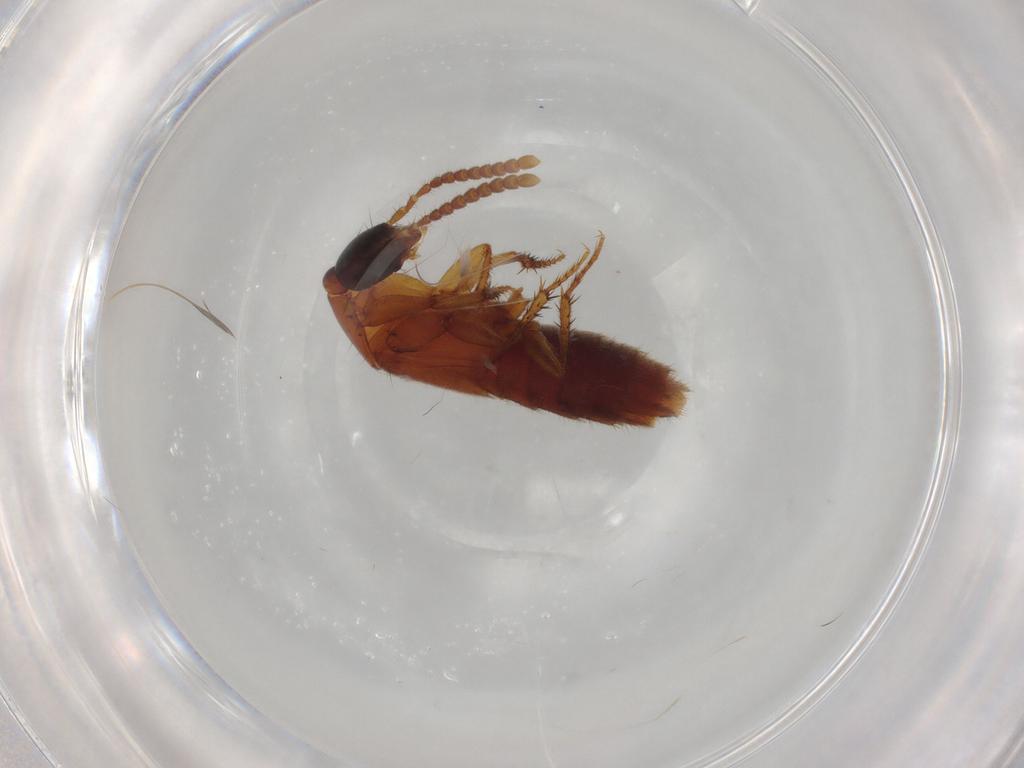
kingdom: Animalia
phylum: Arthropoda
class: Insecta
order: Coleoptera
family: Staphylinidae
